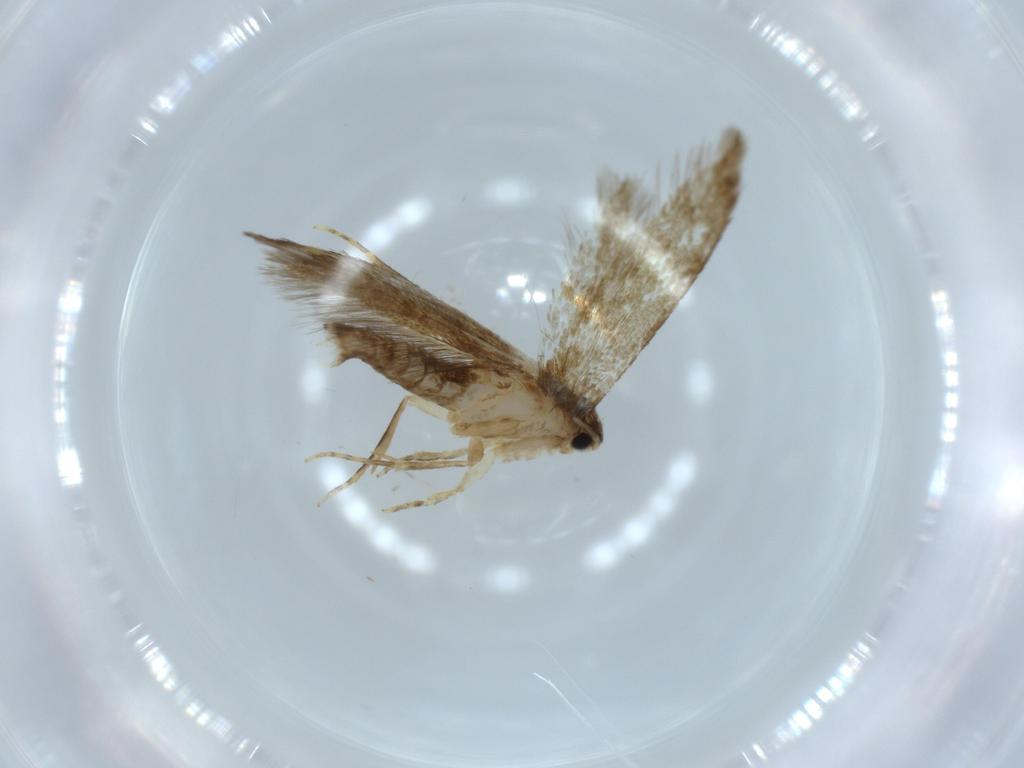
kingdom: Animalia
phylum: Arthropoda
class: Insecta
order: Lepidoptera
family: Tineidae
